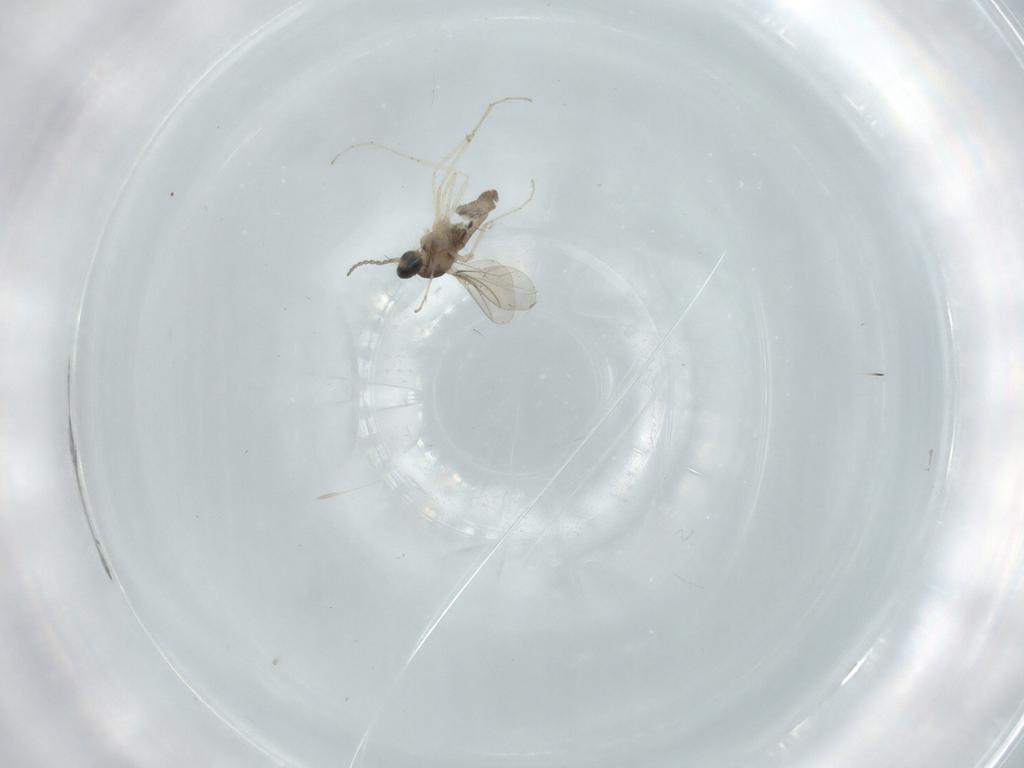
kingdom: Animalia
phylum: Arthropoda
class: Insecta
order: Diptera
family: Cecidomyiidae
